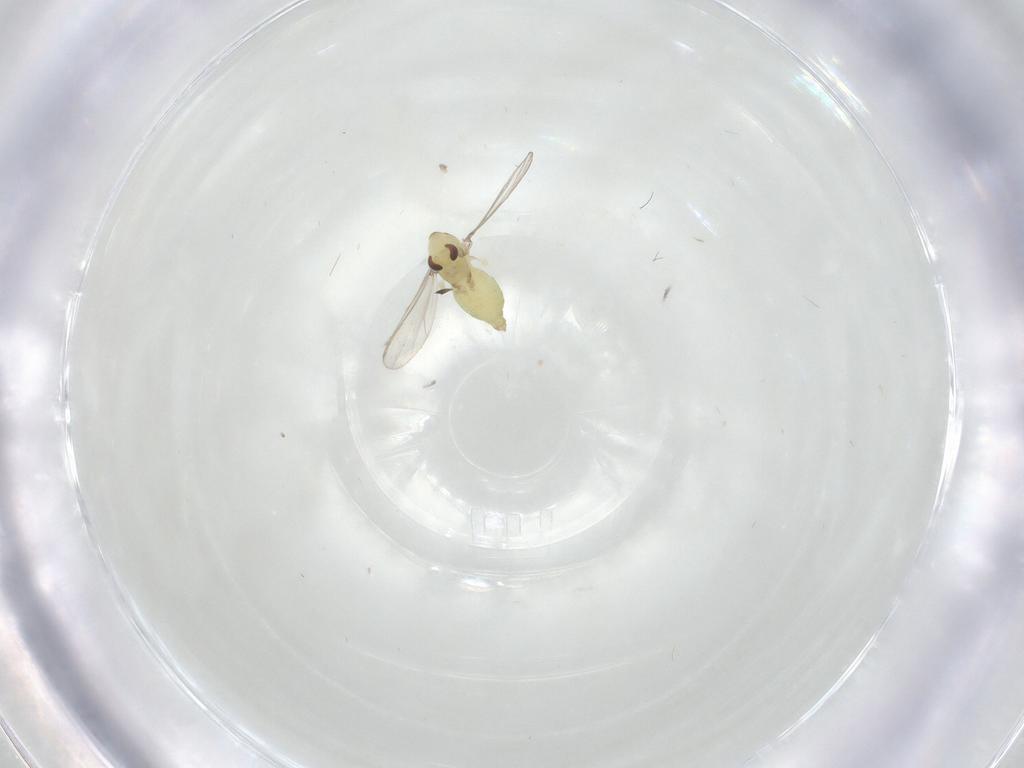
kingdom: Animalia
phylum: Arthropoda
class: Insecta
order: Diptera
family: Chironomidae
